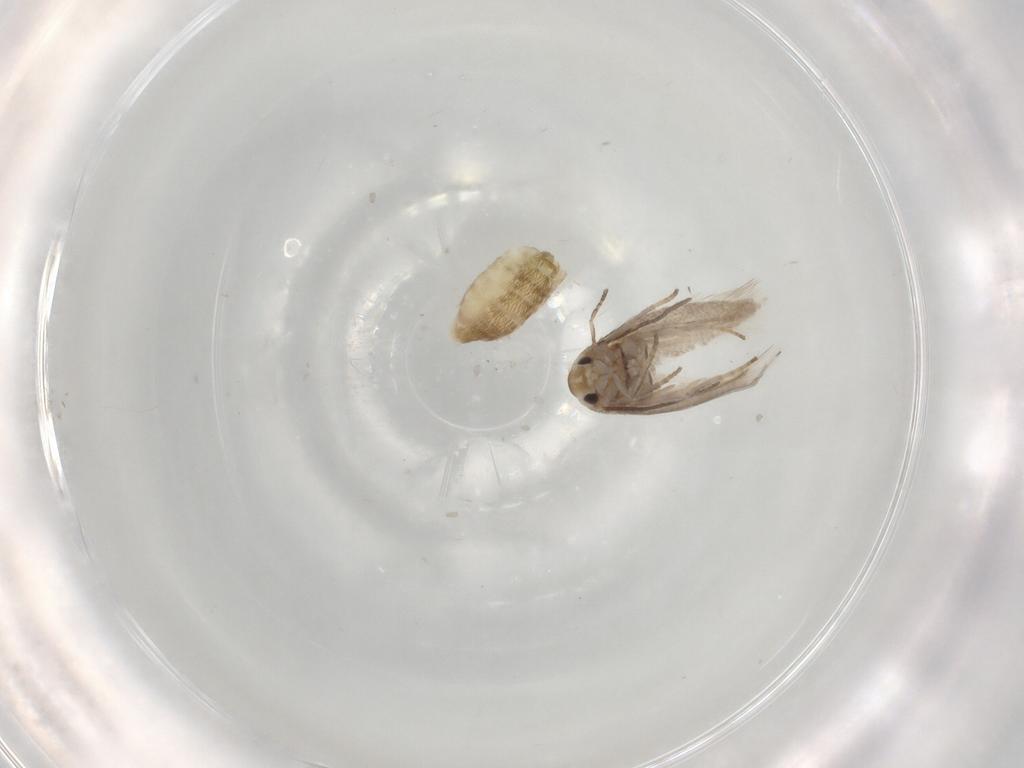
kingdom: Animalia
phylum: Arthropoda
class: Insecta
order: Lepidoptera
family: Depressariidae
